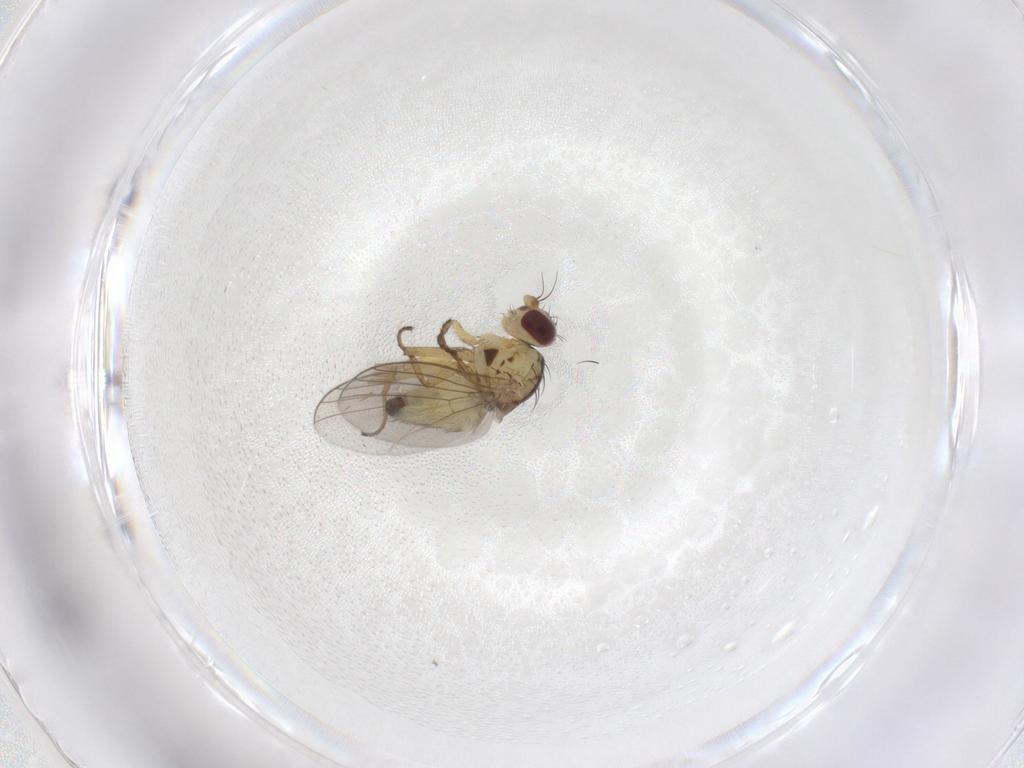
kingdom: Animalia
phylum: Arthropoda
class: Insecta
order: Diptera
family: Agromyzidae
